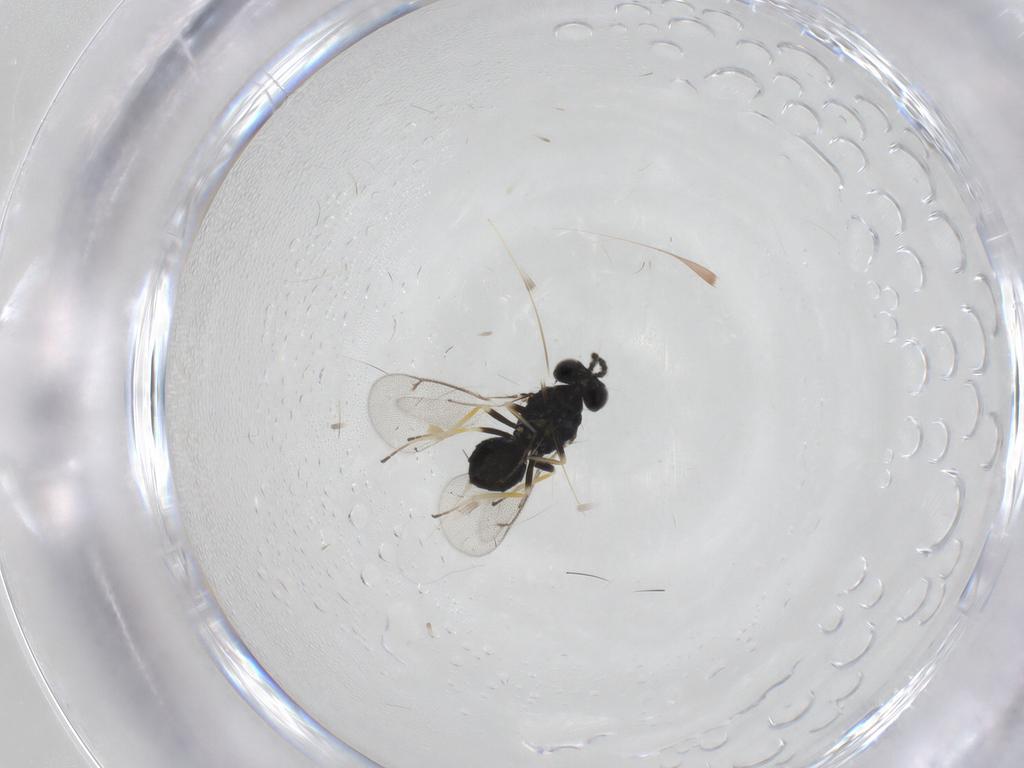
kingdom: Animalia
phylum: Arthropoda
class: Insecta
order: Hymenoptera
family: Eulophidae
